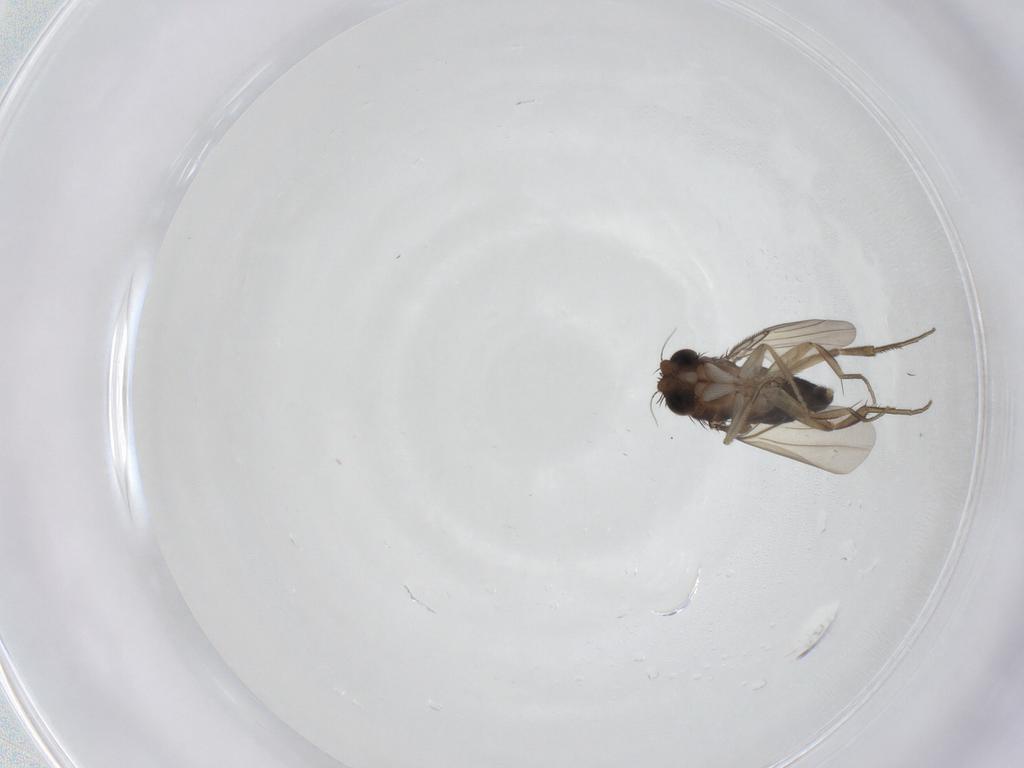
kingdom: Animalia
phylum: Arthropoda
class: Insecta
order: Diptera
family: Phoridae
